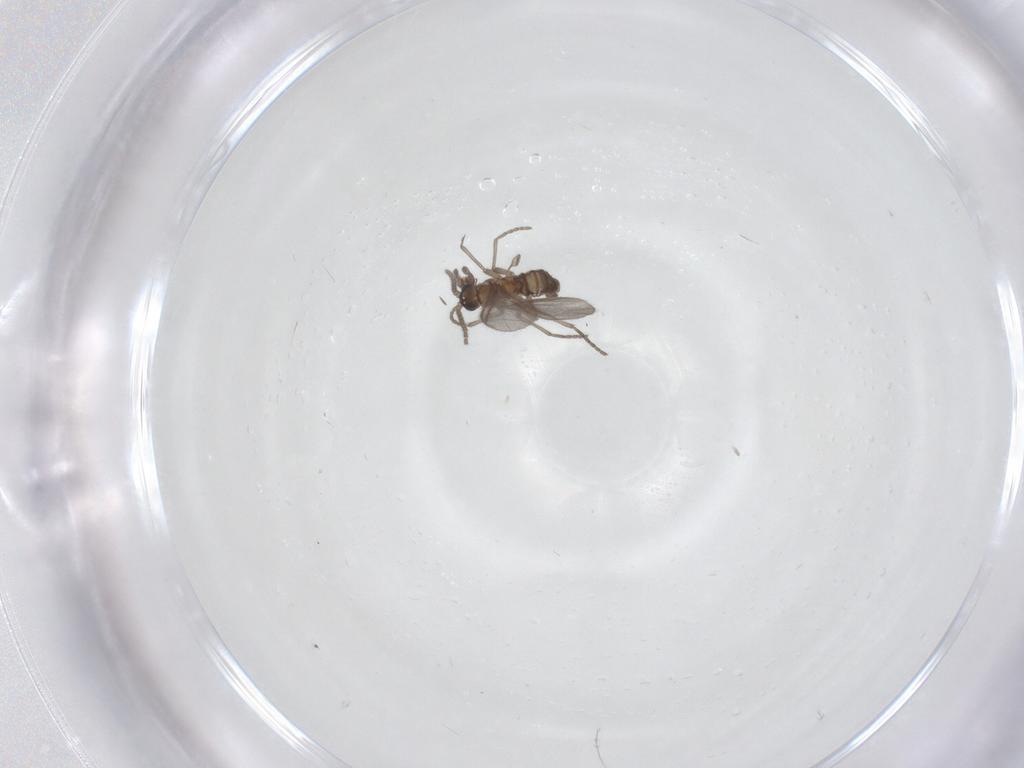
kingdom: Animalia
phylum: Arthropoda
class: Insecta
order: Diptera
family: Sciaridae
